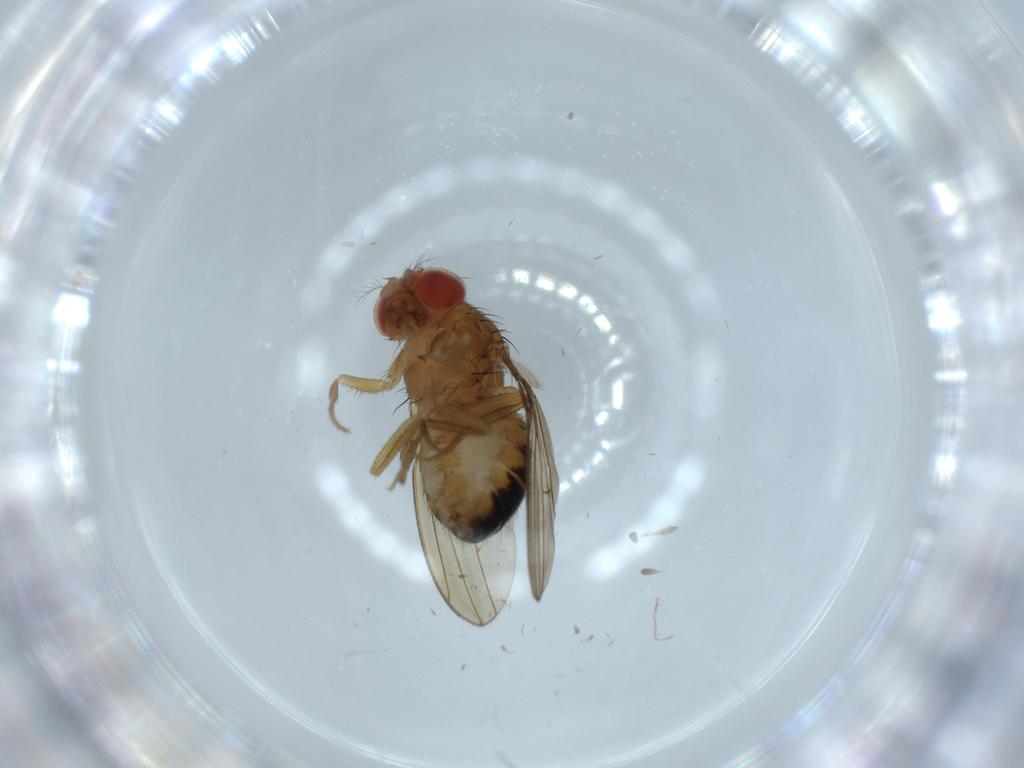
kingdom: Animalia
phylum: Arthropoda
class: Insecta
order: Diptera
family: Drosophilidae
